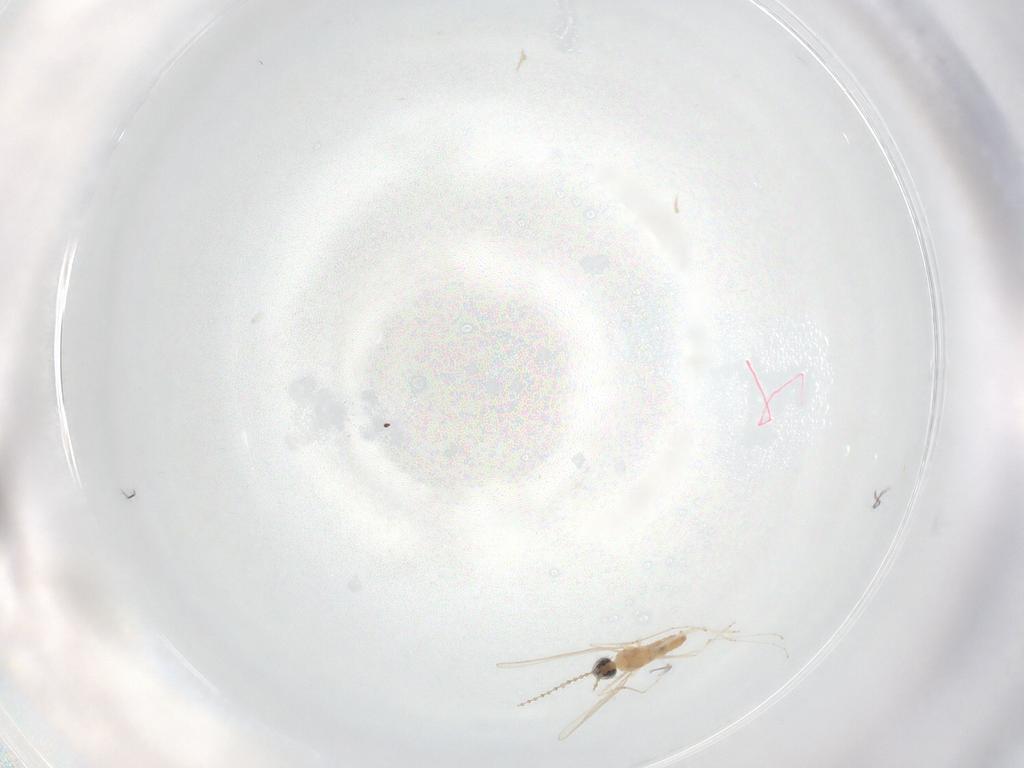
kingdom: Animalia
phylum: Arthropoda
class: Insecta
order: Diptera
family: Cecidomyiidae
